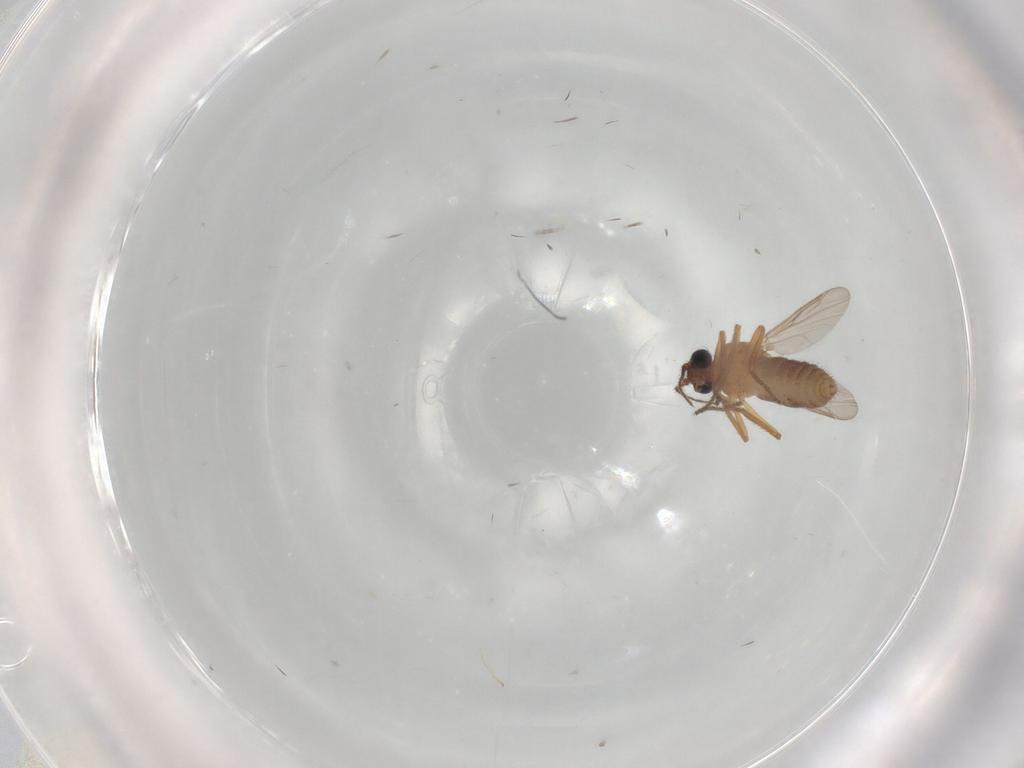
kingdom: Animalia
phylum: Arthropoda
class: Insecta
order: Diptera
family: Ceratopogonidae
